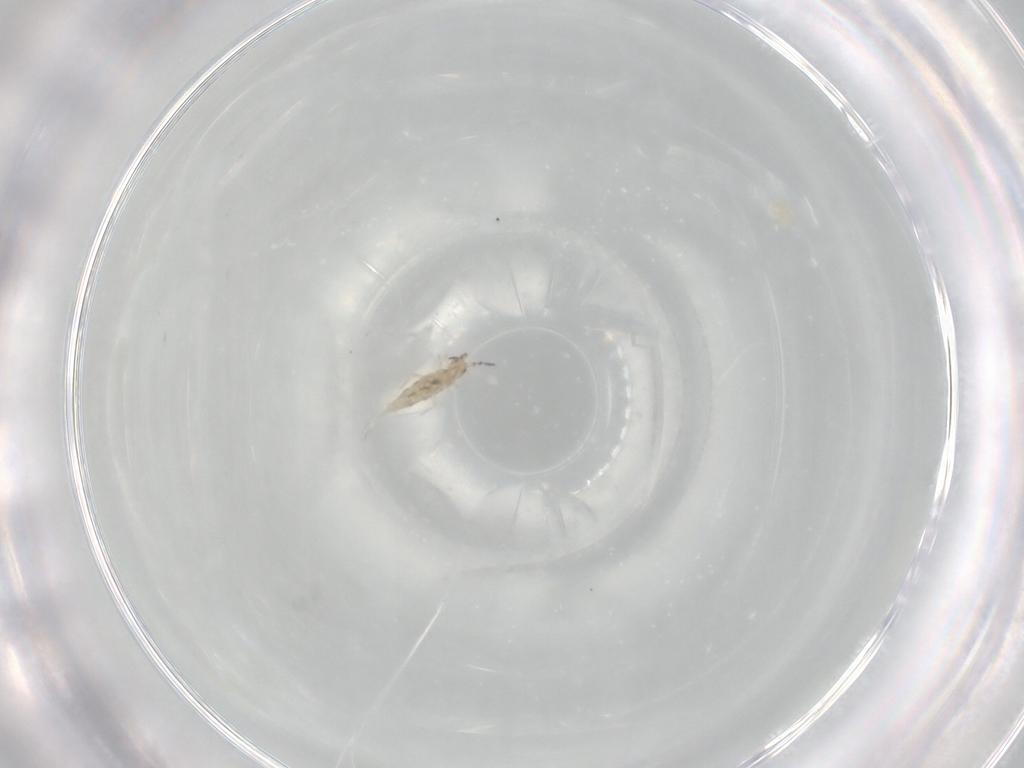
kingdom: Animalia
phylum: Arthropoda
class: Collembola
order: Entomobryomorpha
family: Entomobryidae
